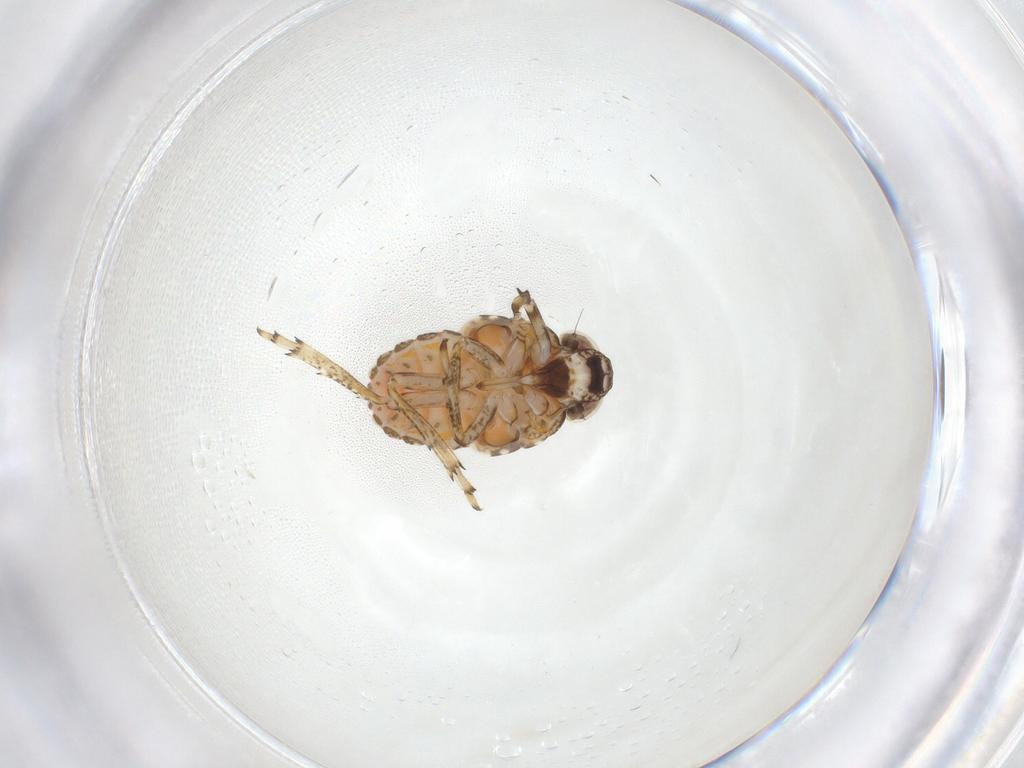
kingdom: Animalia
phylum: Arthropoda
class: Insecta
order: Hemiptera
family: Issidae
